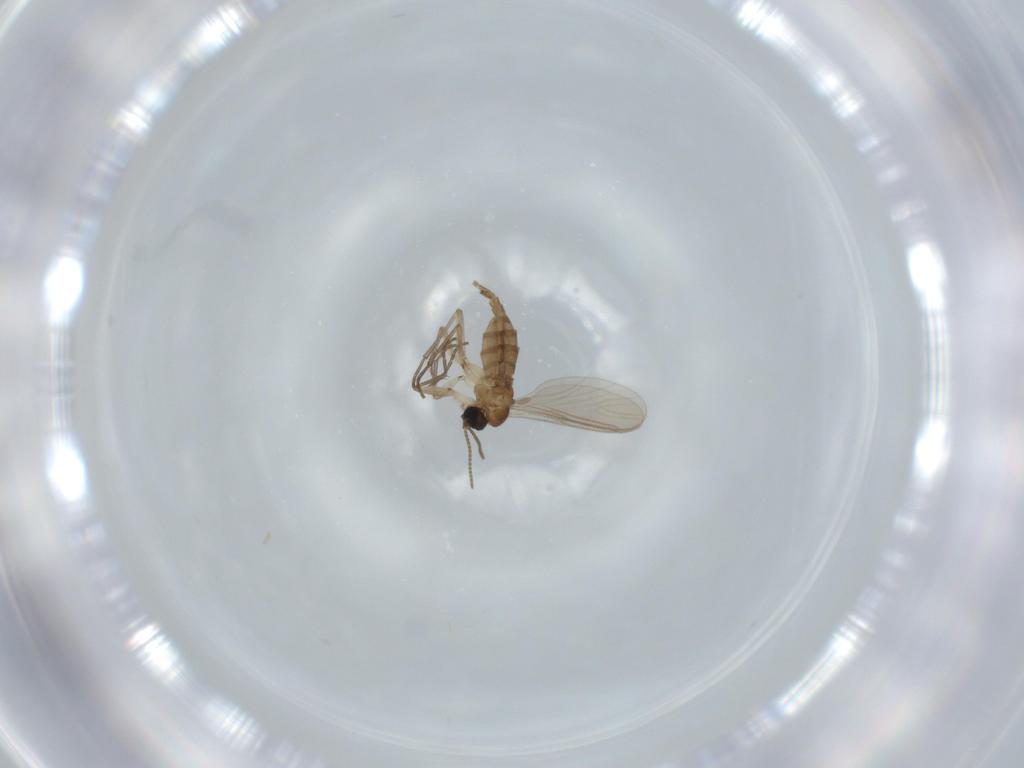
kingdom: Animalia
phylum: Arthropoda
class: Insecta
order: Diptera
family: Sciaridae
